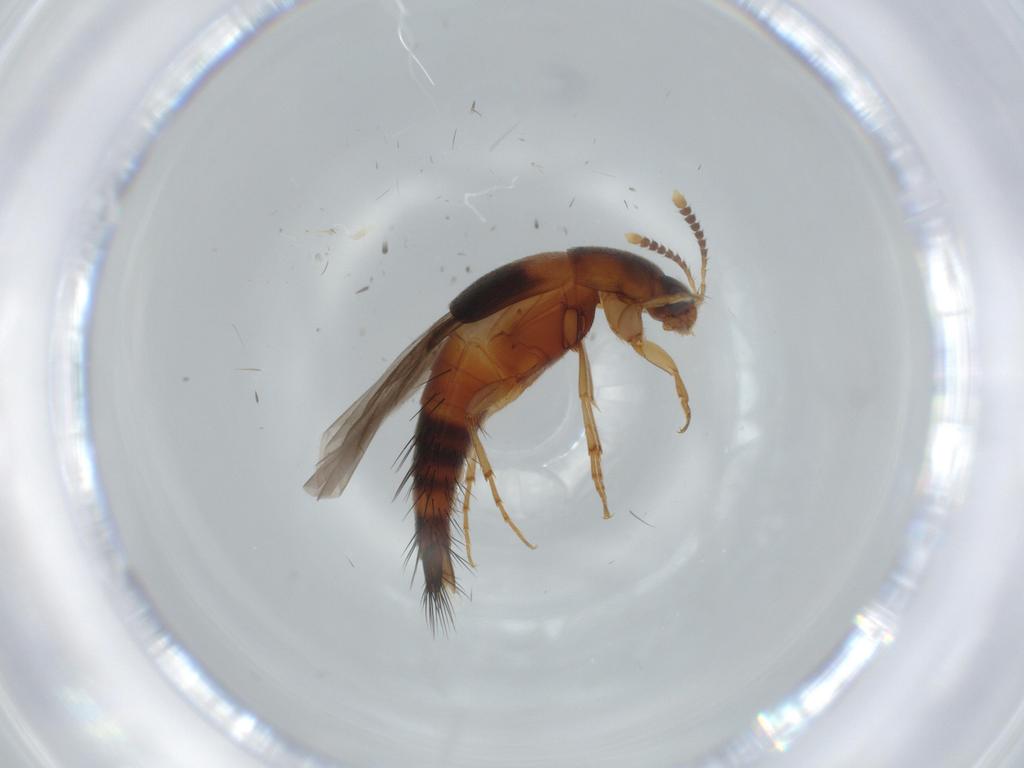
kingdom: Animalia
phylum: Arthropoda
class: Insecta
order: Coleoptera
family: Staphylinidae
